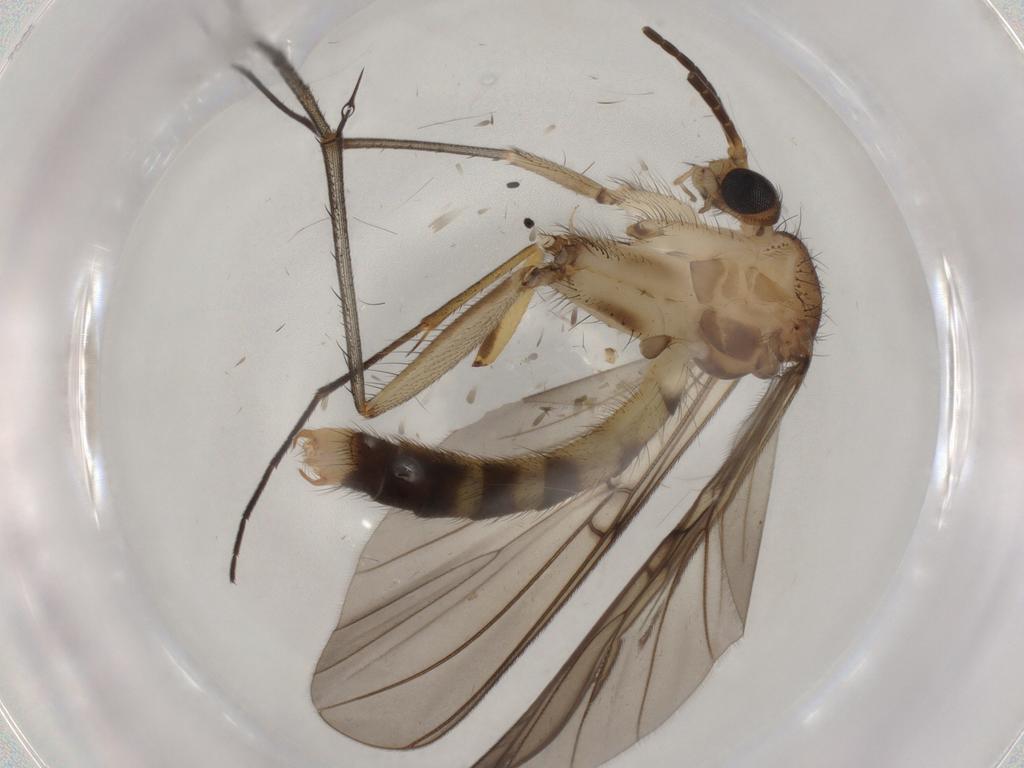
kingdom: Animalia
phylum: Arthropoda
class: Insecta
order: Diptera
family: Mycetophilidae
